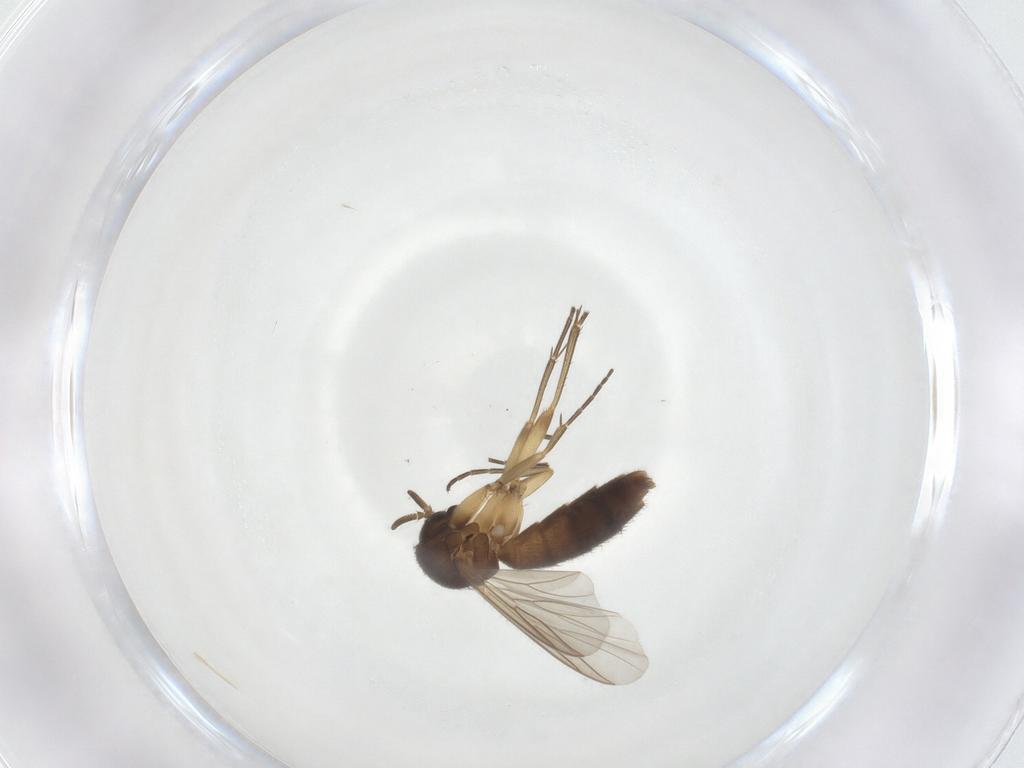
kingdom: Animalia
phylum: Arthropoda
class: Insecta
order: Diptera
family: Mycetophilidae
